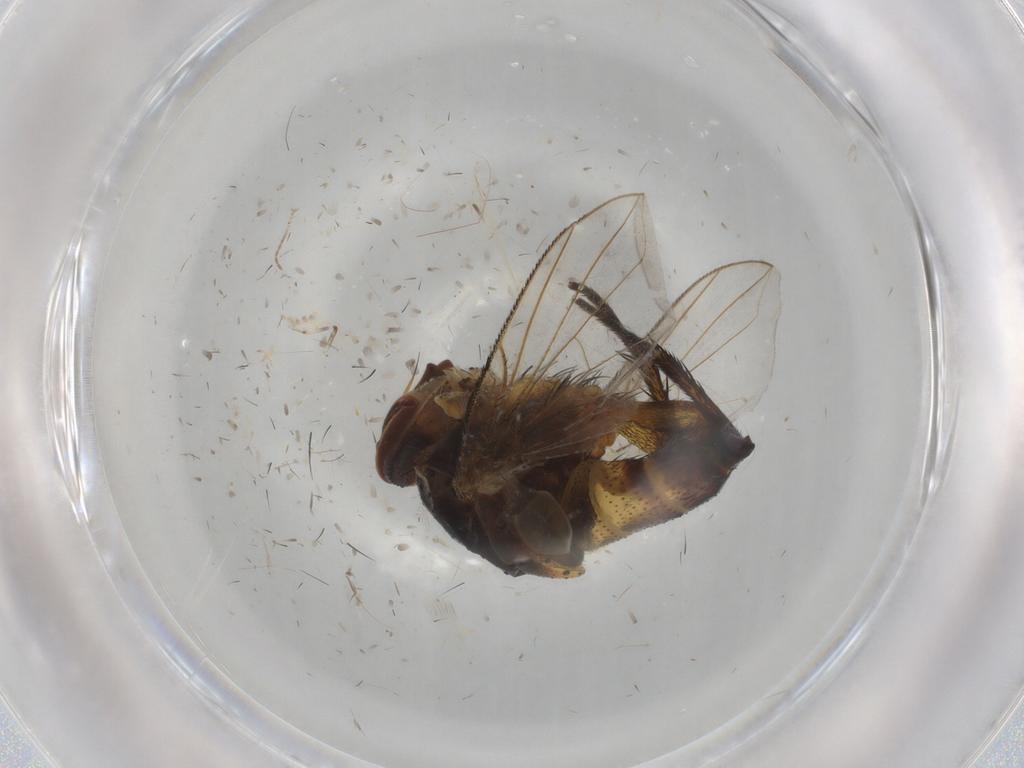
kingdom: Animalia
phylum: Arthropoda
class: Insecta
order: Diptera
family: Glossinidae
